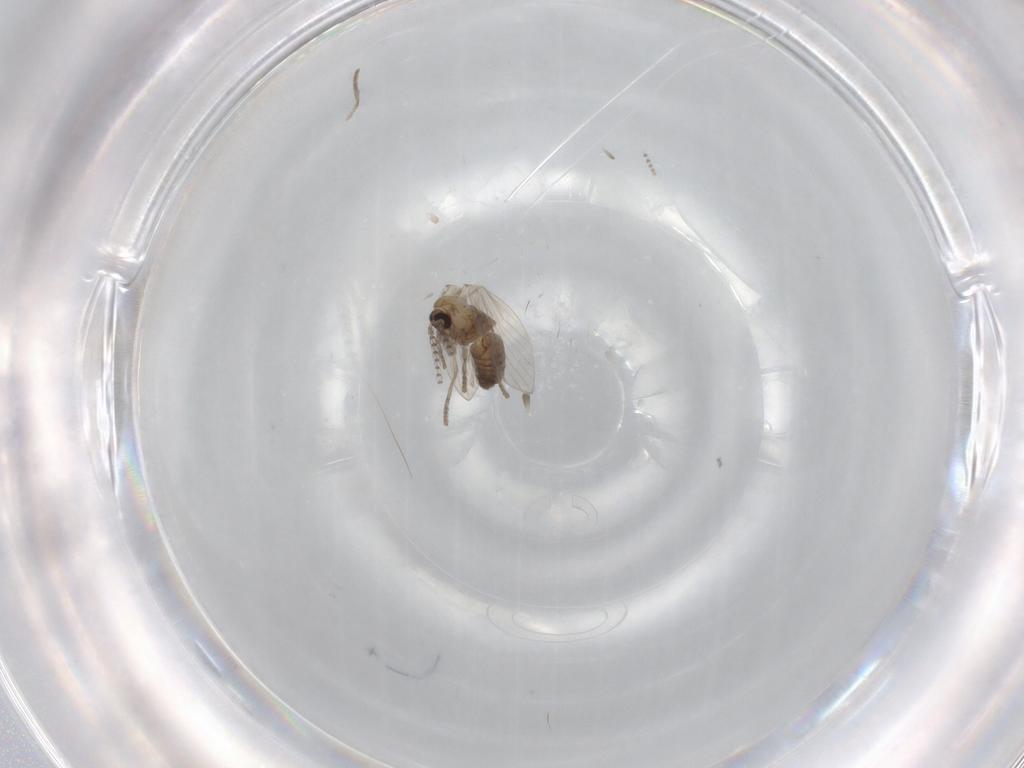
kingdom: Animalia
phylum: Arthropoda
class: Insecta
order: Diptera
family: Psychodidae
